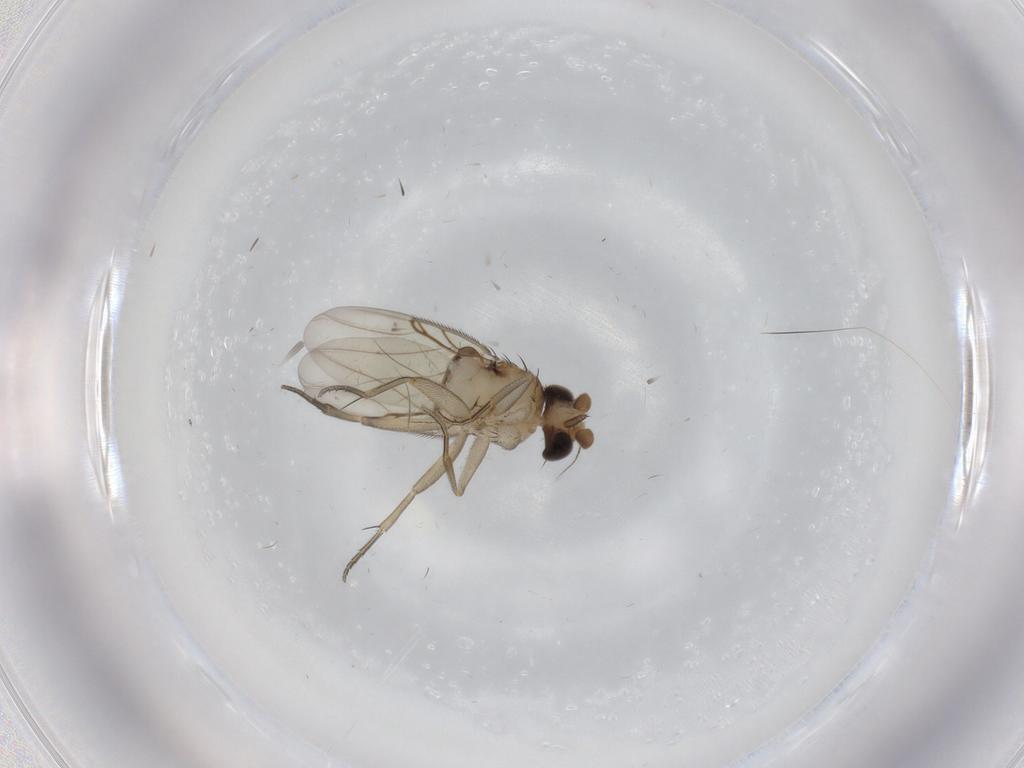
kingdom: Animalia
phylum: Arthropoda
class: Insecta
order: Diptera
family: Phoridae
